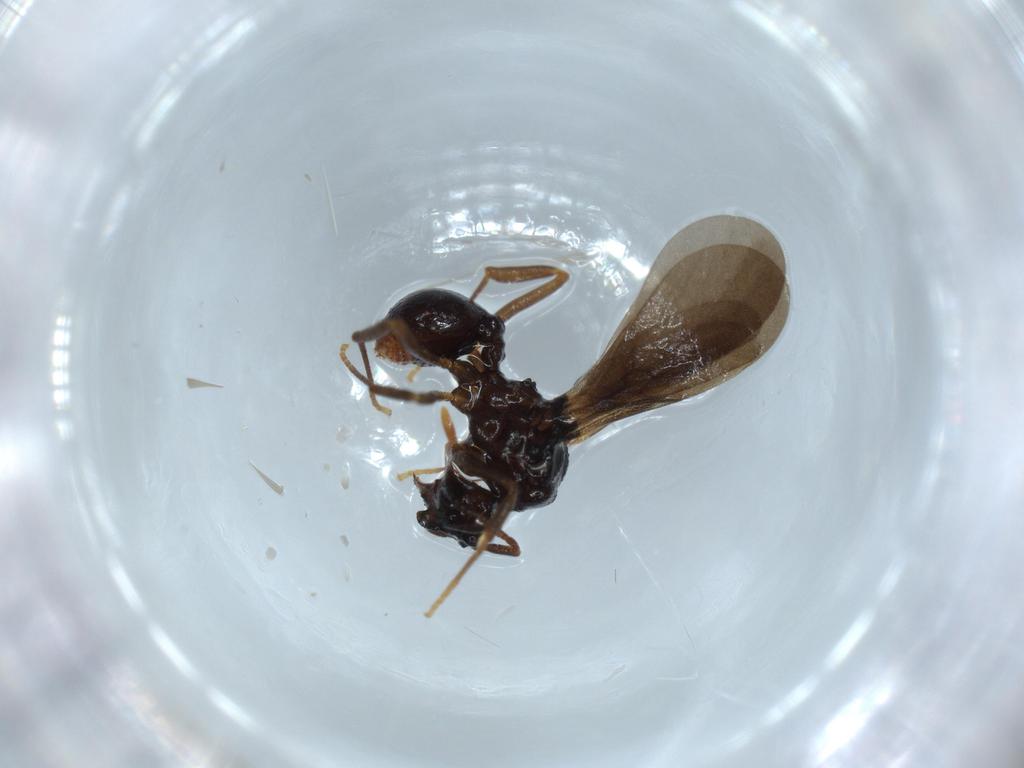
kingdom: Animalia
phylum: Arthropoda
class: Insecta
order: Hymenoptera
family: Formicidae
